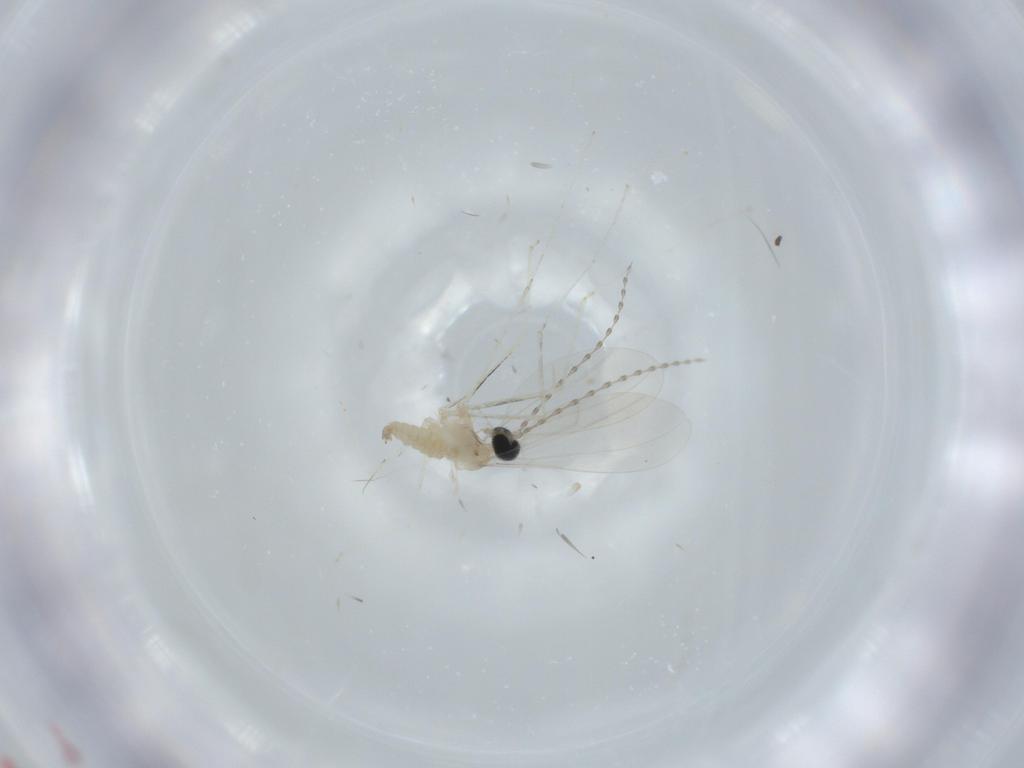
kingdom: Animalia
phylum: Arthropoda
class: Insecta
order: Diptera
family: Cecidomyiidae
